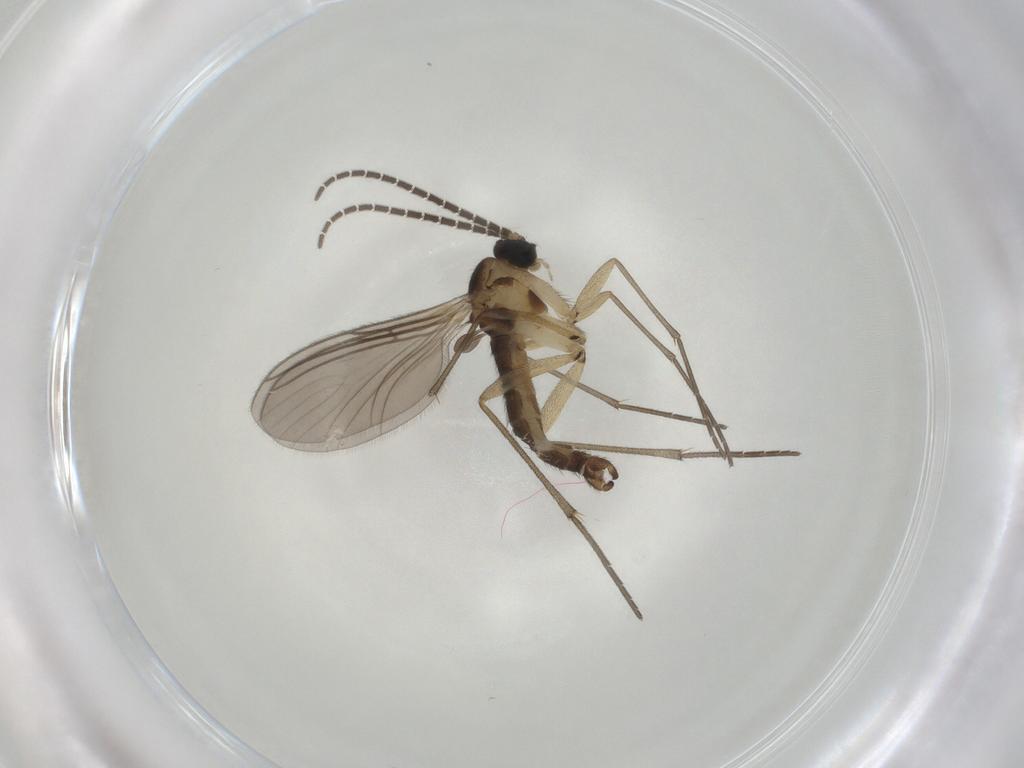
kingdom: Animalia
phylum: Arthropoda
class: Insecta
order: Diptera
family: Sciaridae
